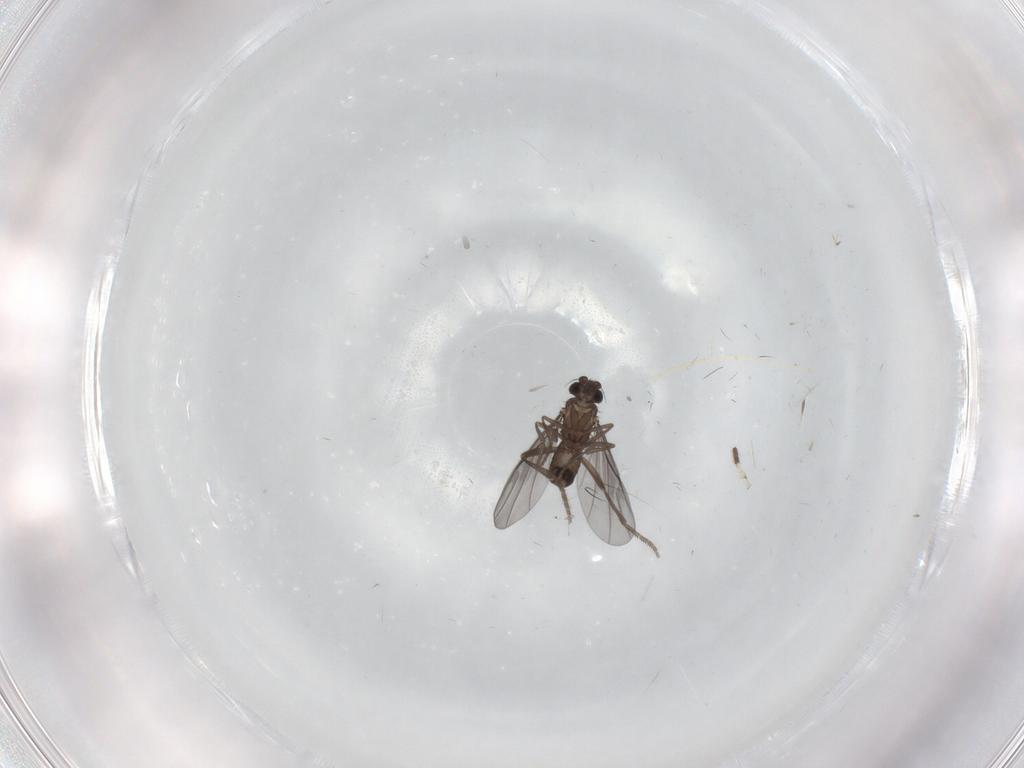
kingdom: Animalia
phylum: Arthropoda
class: Insecta
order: Diptera
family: Phoridae
